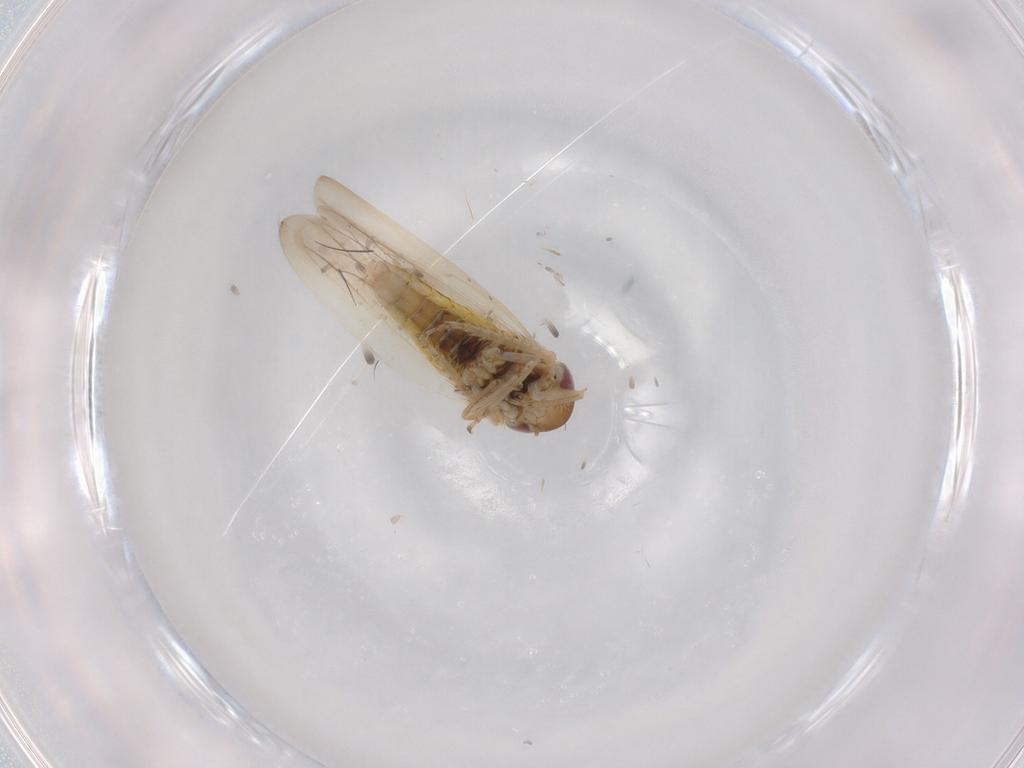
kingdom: Animalia
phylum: Arthropoda
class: Insecta
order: Hemiptera
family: Cicadellidae
